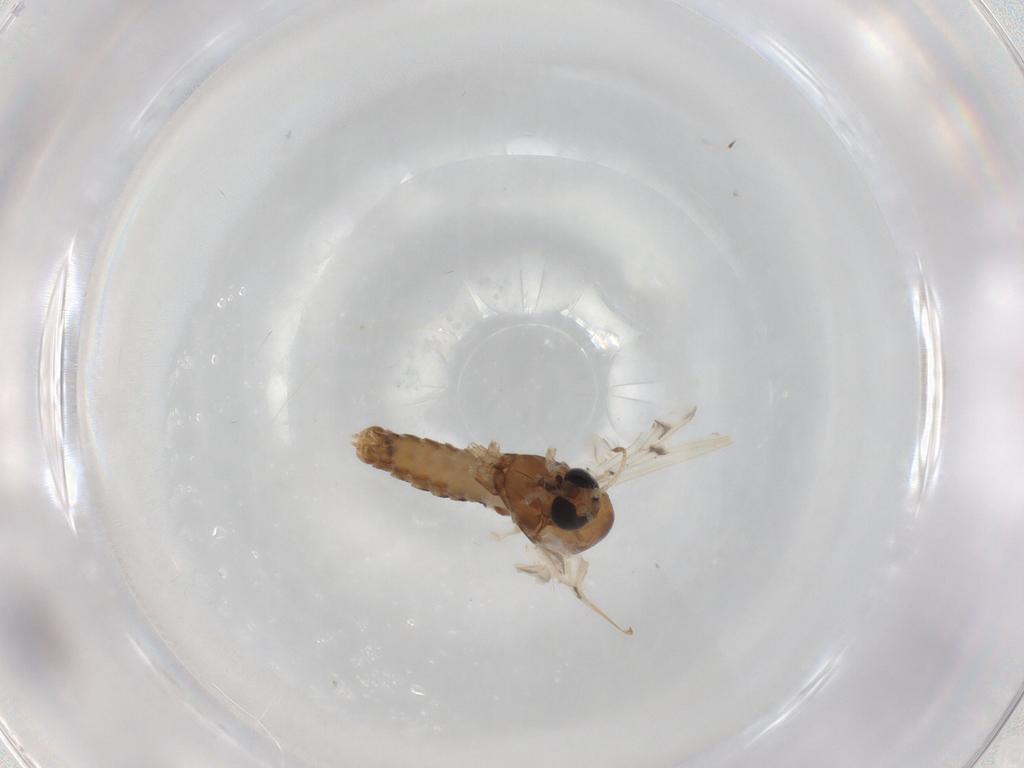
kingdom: Animalia
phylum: Arthropoda
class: Insecta
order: Diptera
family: Chironomidae
